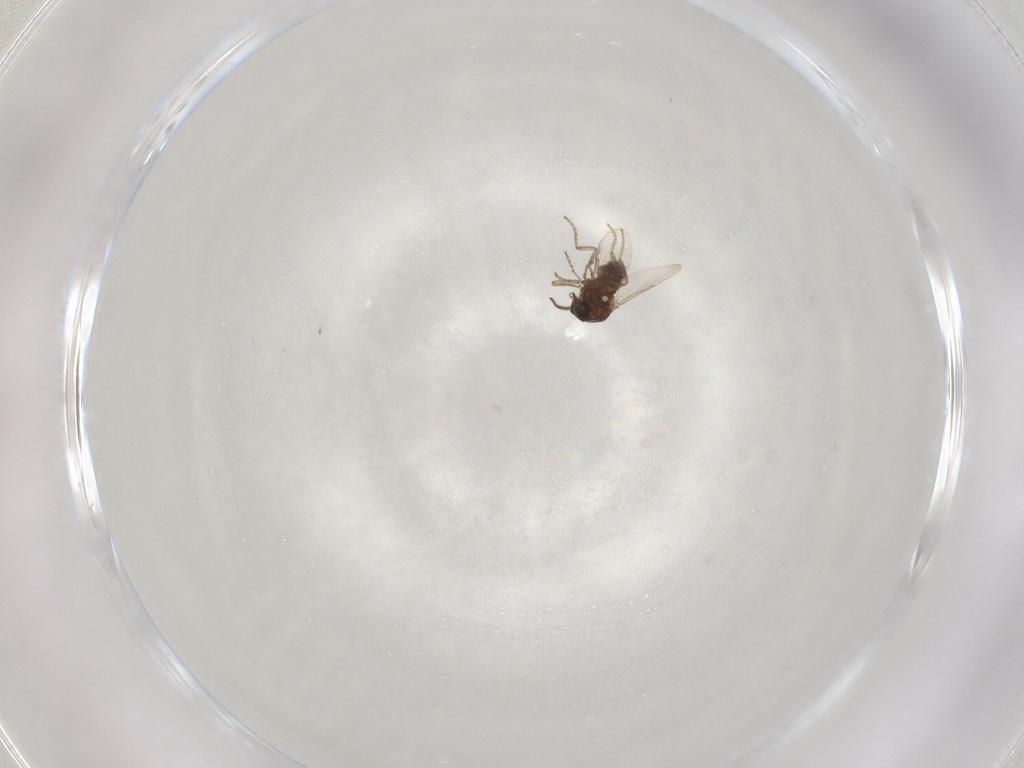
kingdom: Animalia
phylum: Arthropoda
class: Insecta
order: Diptera
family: Ceratopogonidae
